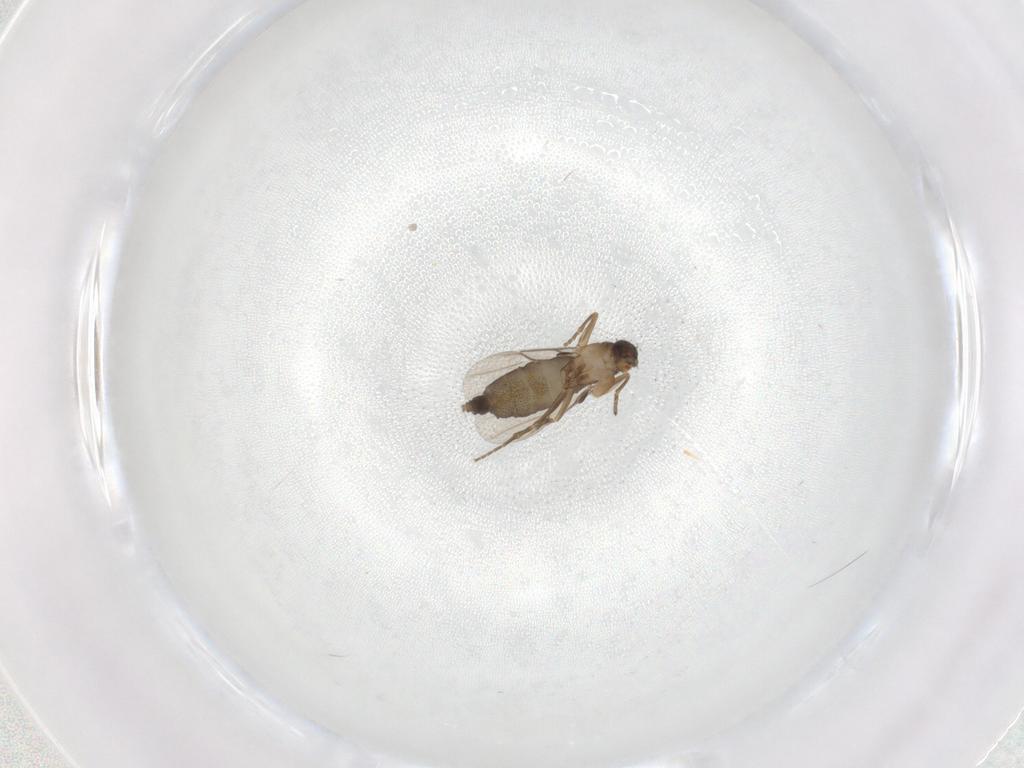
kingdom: Animalia
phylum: Arthropoda
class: Insecta
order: Diptera
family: Phoridae
